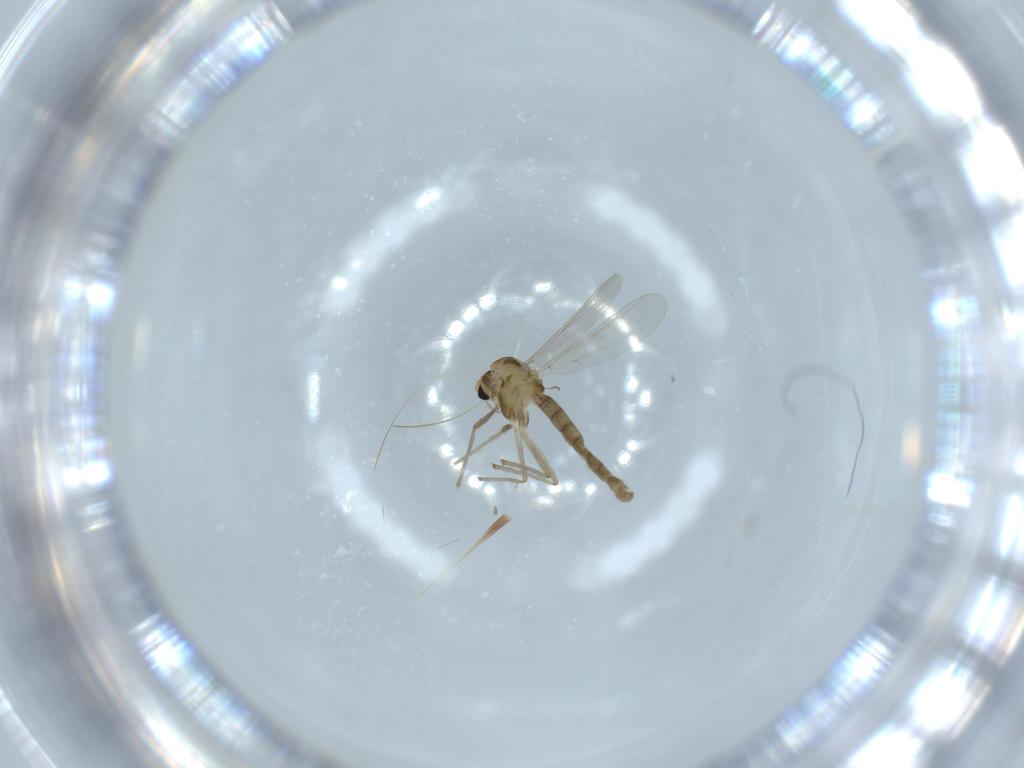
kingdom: Animalia
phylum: Arthropoda
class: Insecta
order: Diptera
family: Chironomidae
